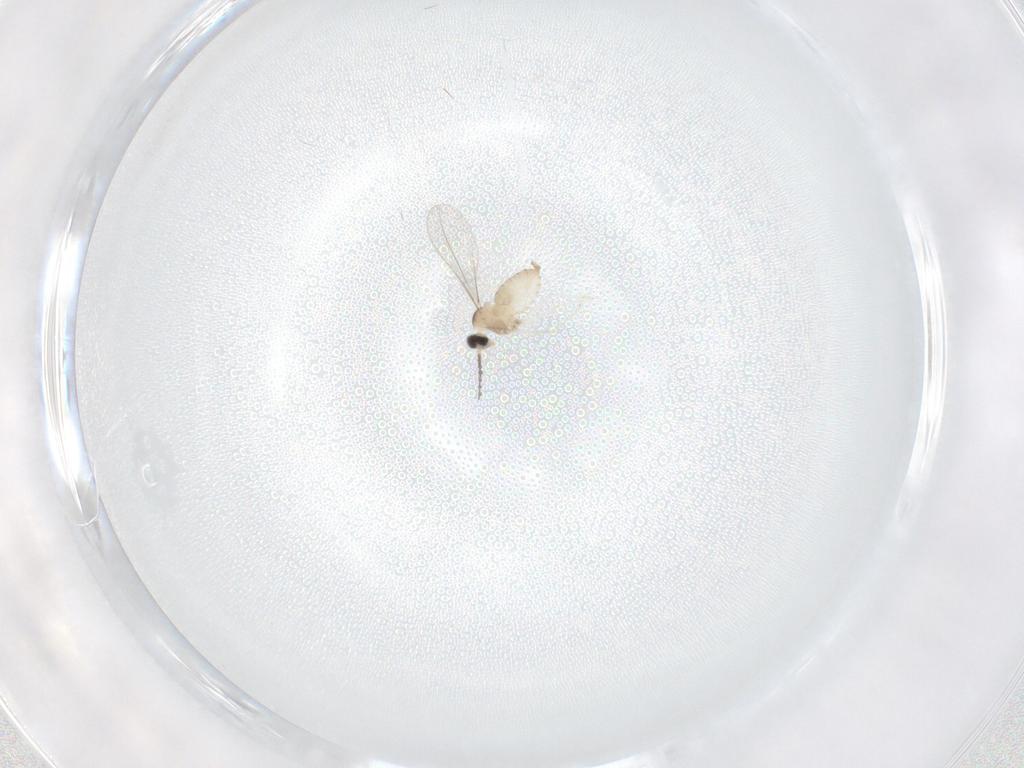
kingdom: Animalia
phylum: Arthropoda
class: Insecta
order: Diptera
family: Cecidomyiidae
